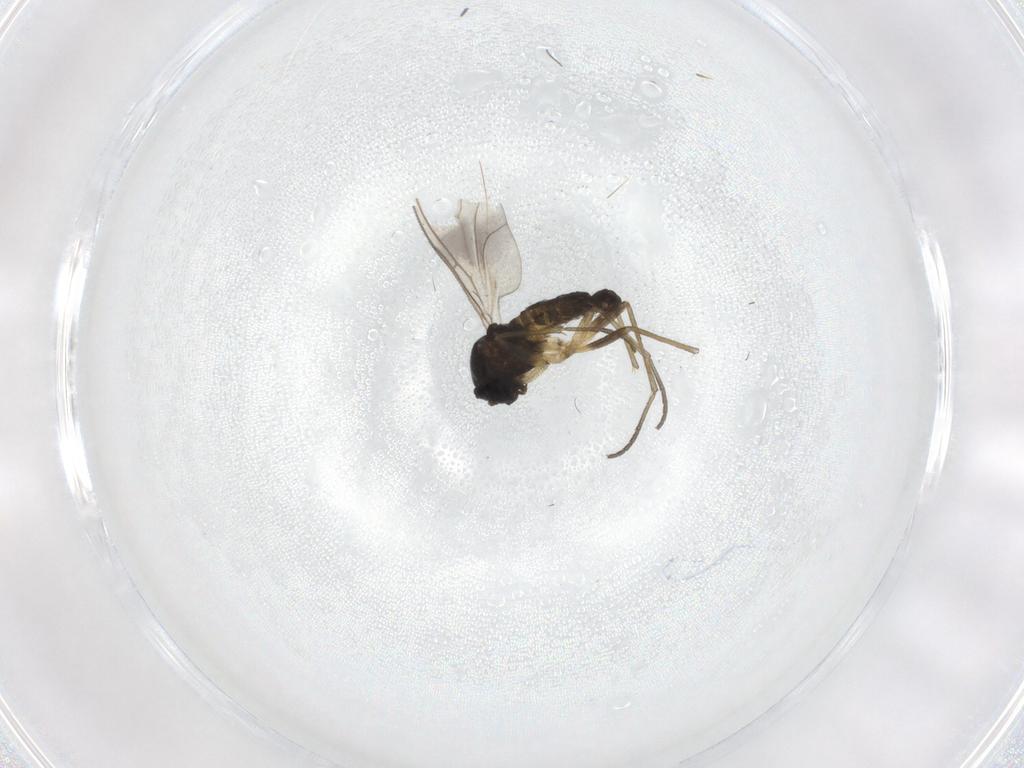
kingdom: Animalia
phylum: Arthropoda
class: Insecta
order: Diptera
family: Sciaridae
